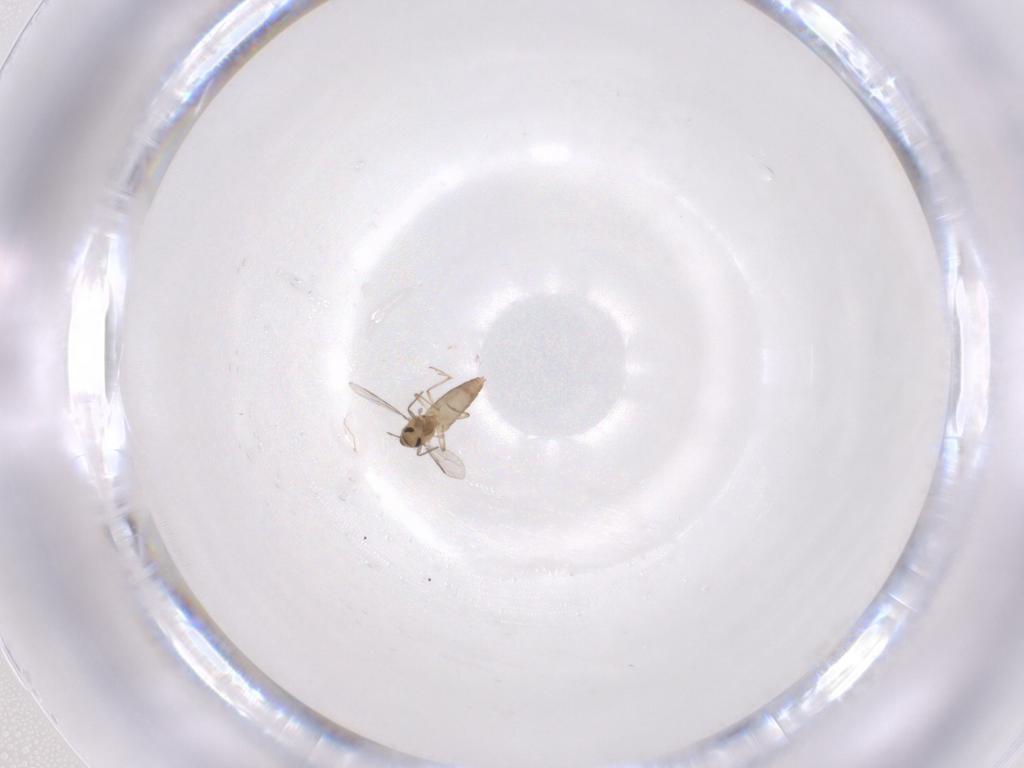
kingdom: Animalia
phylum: Arthropoda
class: Insecta
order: Diptera
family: Chironomidae
